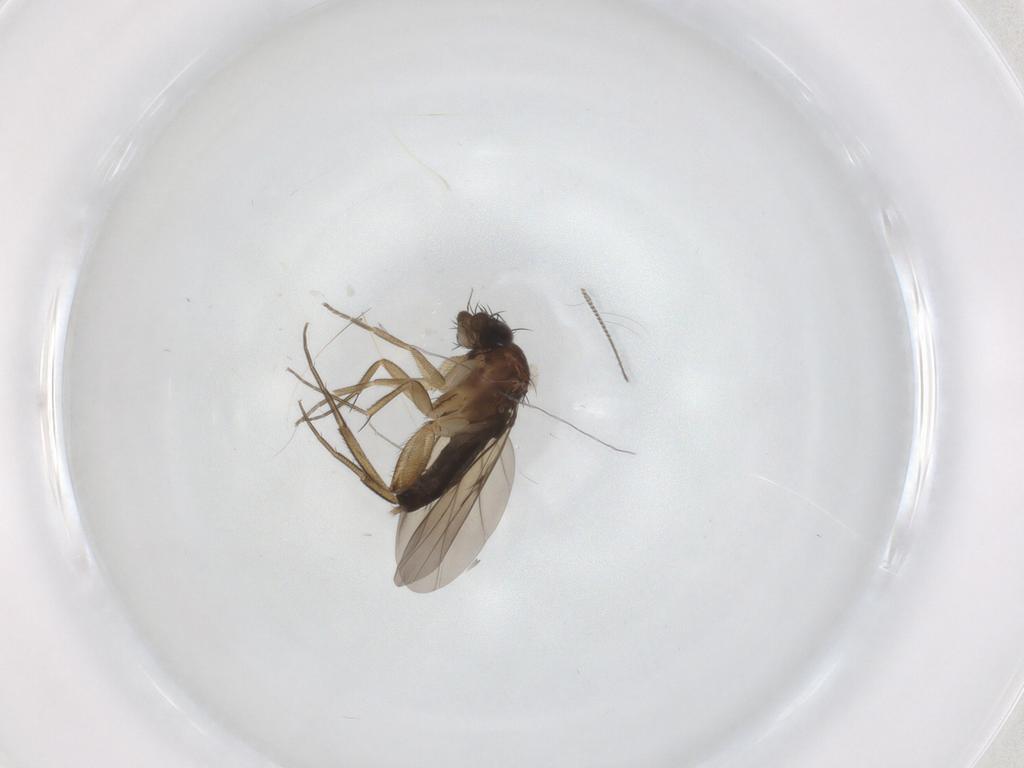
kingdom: Animalia
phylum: Arthropoda
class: Insecta
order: Diptera
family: Phoridae
